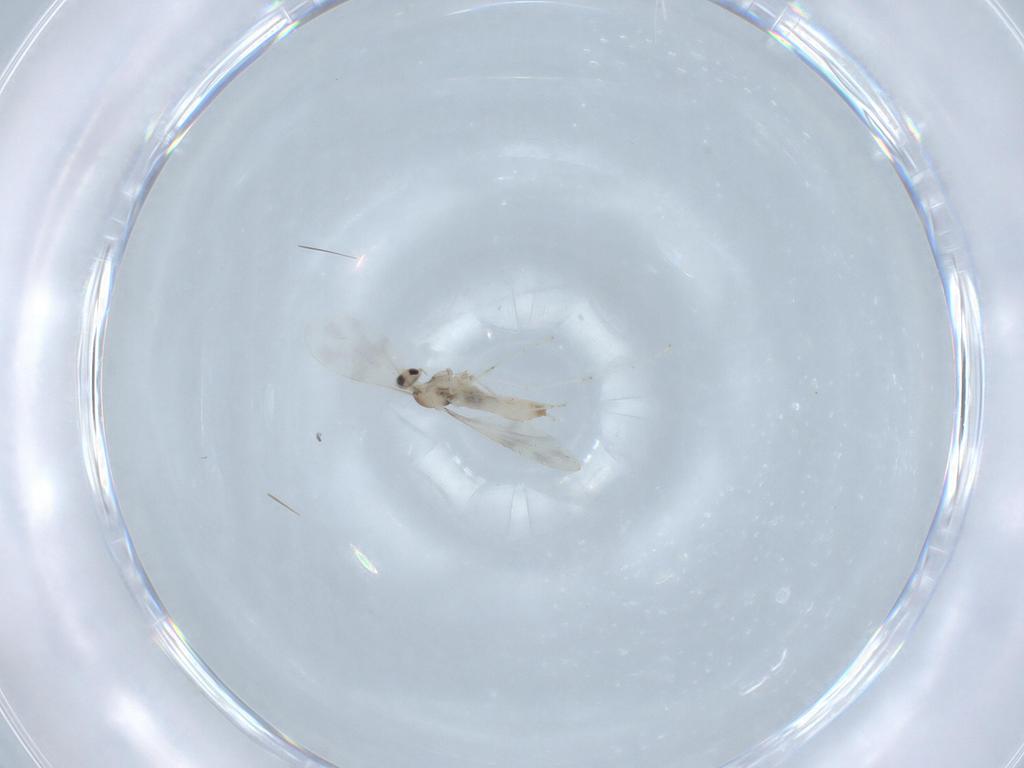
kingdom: Animalia
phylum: Arthropoda
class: Insecta
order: Diptera
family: Cecidomyiidae
